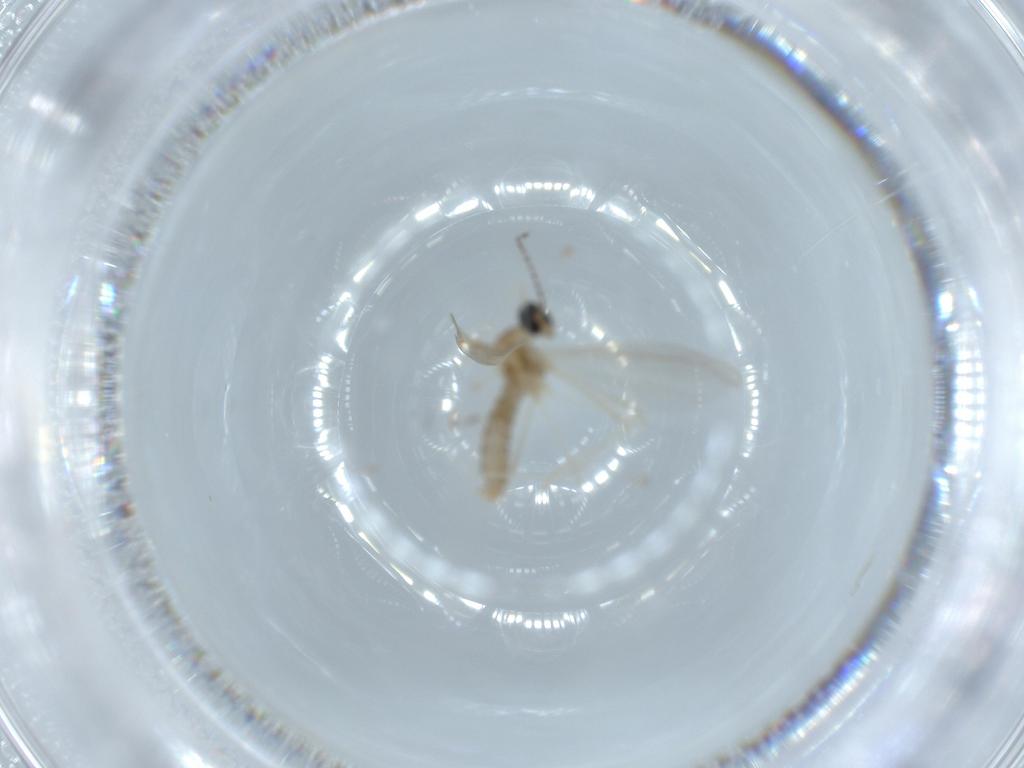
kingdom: Animalia
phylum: Arthropoda
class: Insecta
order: Diptera
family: Cecidomyiidae
